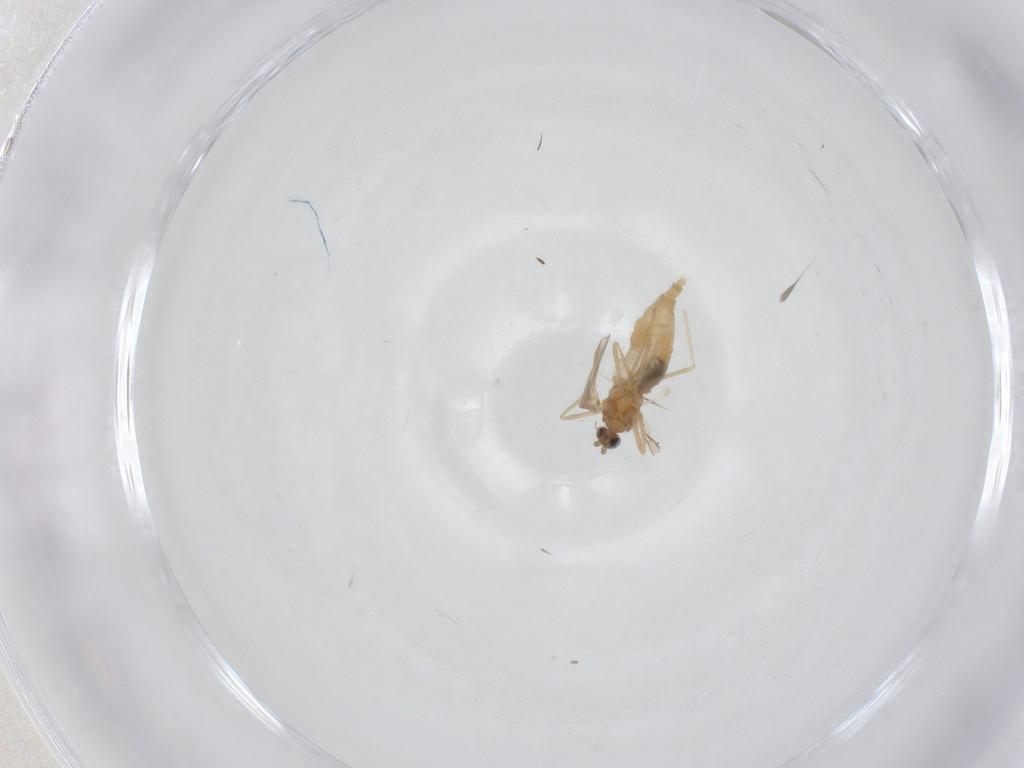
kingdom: Animalia
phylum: Arthropoda
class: Insecta
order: Diptera
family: Cecidomyiidae
